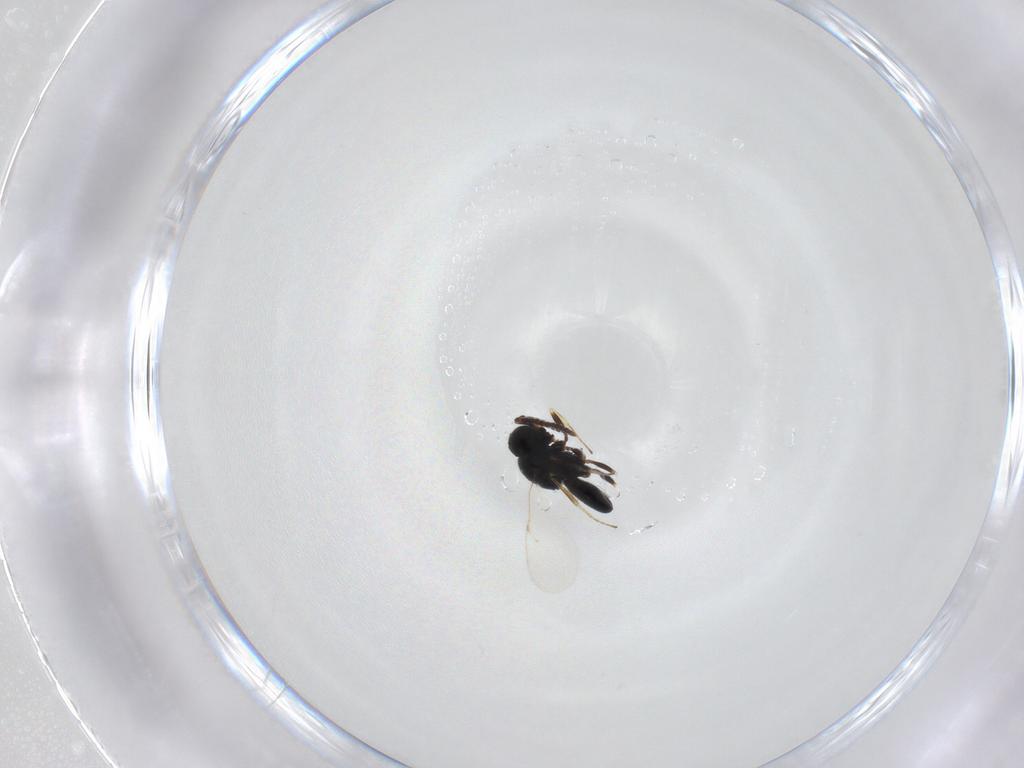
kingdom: Animalia
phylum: Arthropoda
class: Insecta
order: Hymenoptera
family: Scelionidae
